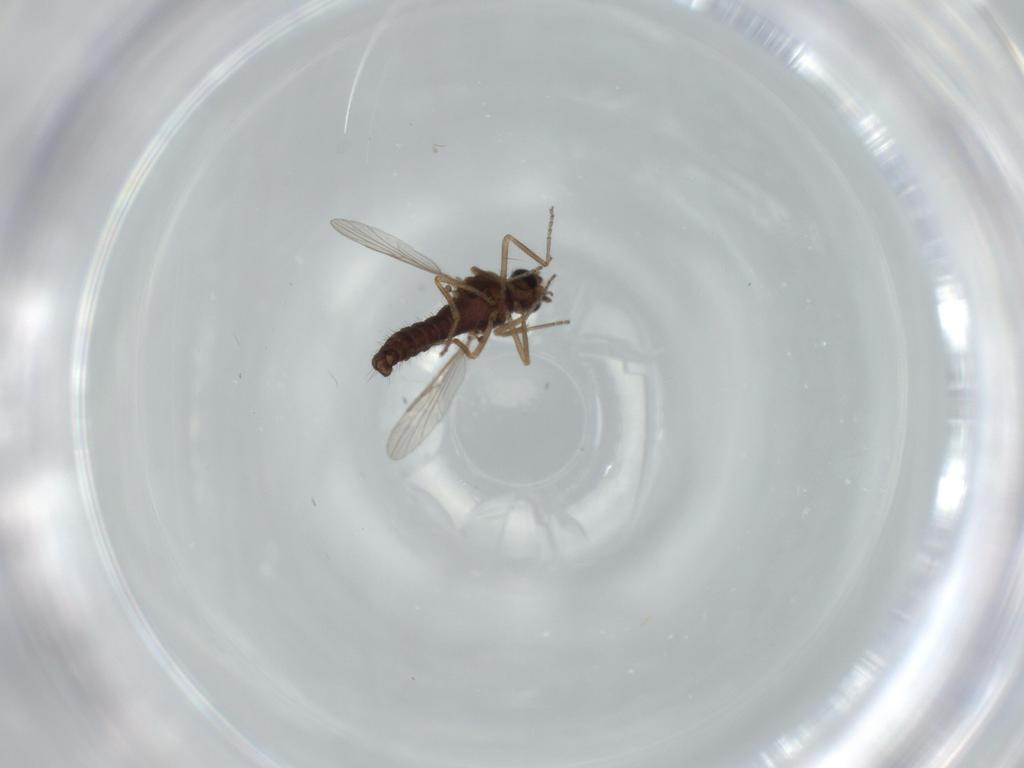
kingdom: Animalia
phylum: Arthropoda
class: Insecta
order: Diptera
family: Ceratopogonidae
